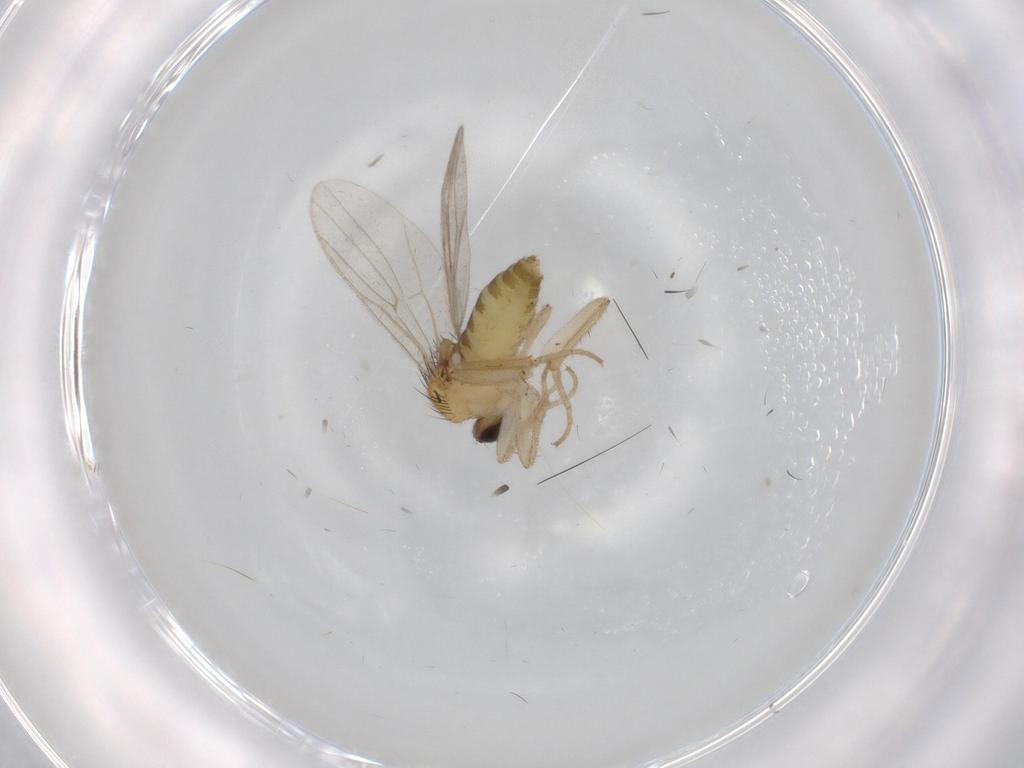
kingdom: Animalia
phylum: Arthropoda
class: Insecta
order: Diptera
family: Hybotidae
